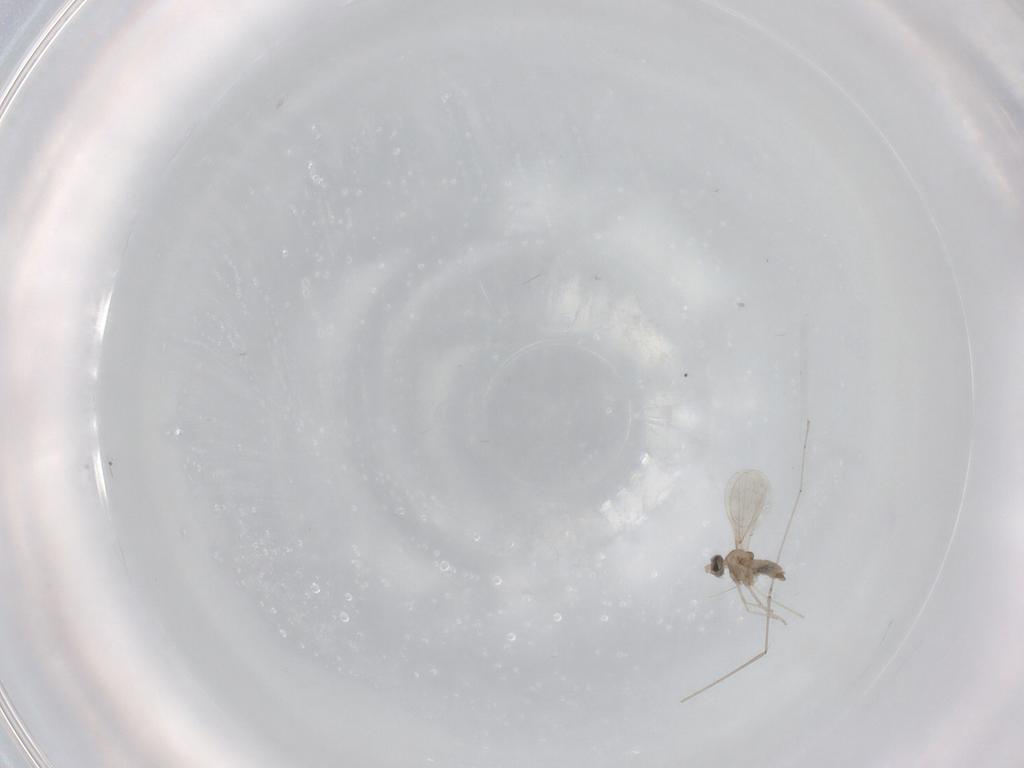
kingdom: Animalia
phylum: Arthropoda
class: Insecta
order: Diptera
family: Cecidomyiidae
